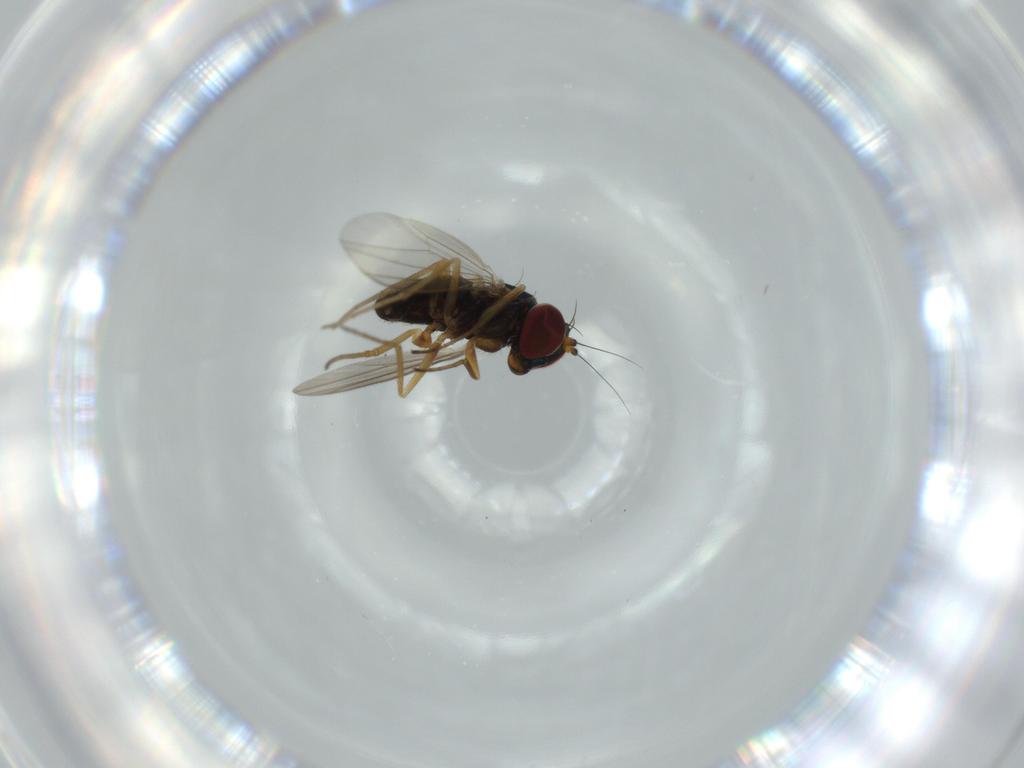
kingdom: Animalia
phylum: Arthropoda
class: Insecta
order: Diptera
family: Sciaridae
